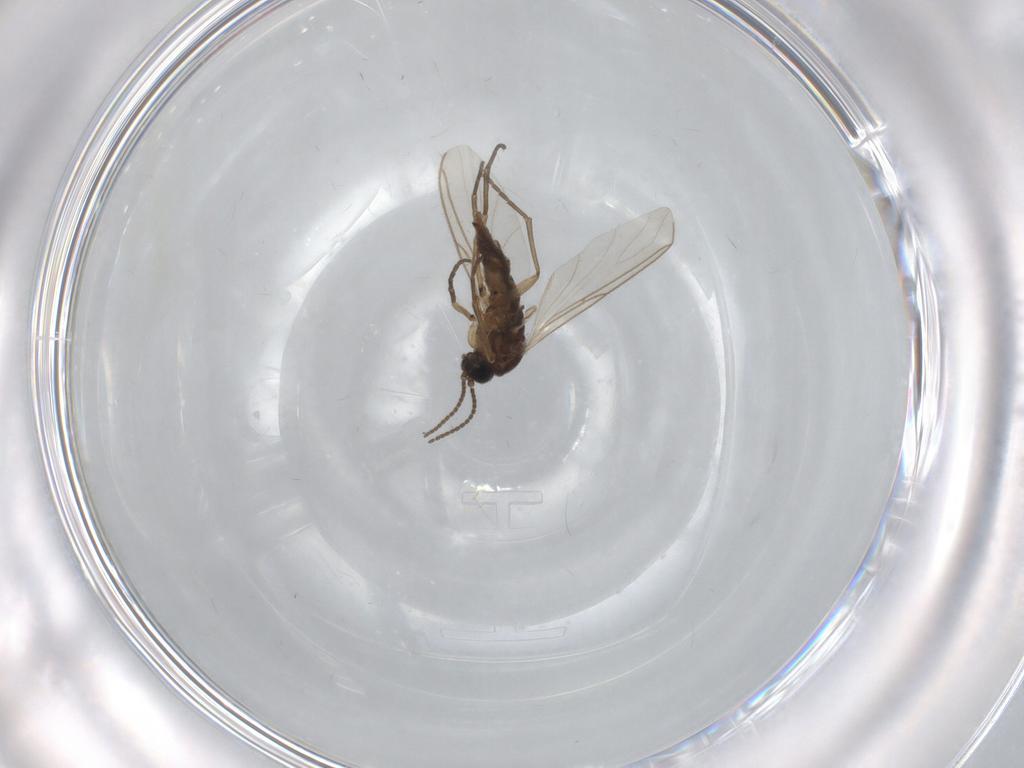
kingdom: Animalia
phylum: Arthropoda
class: Insecta
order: Diptera
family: Sciaridae
